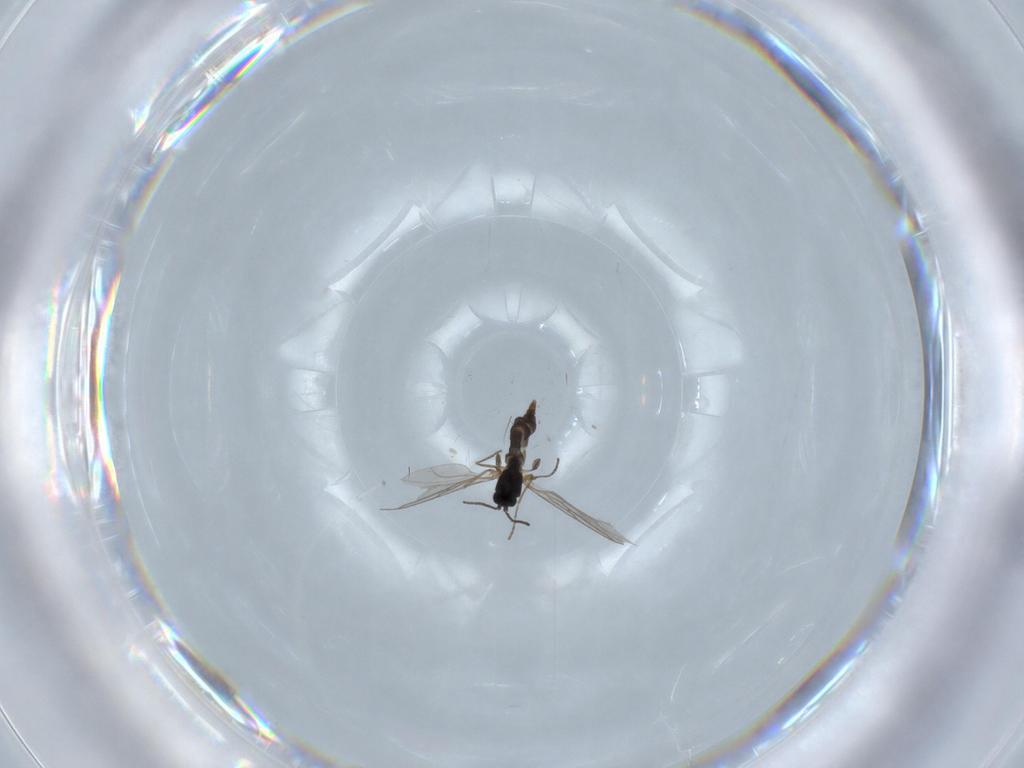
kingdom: Animalia
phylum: Arthropoda
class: Insecta
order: Diptera
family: Sciaridae
